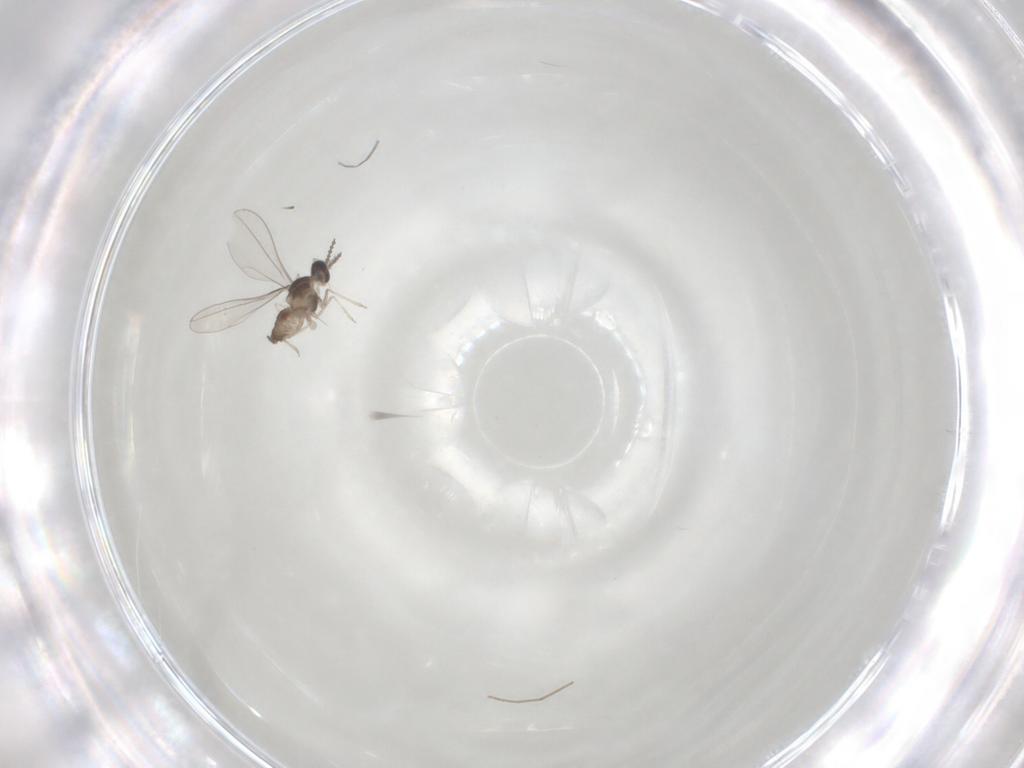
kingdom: Animalia
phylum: Arthropoda
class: Insecta
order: Diptera
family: Cecidomyiidae
